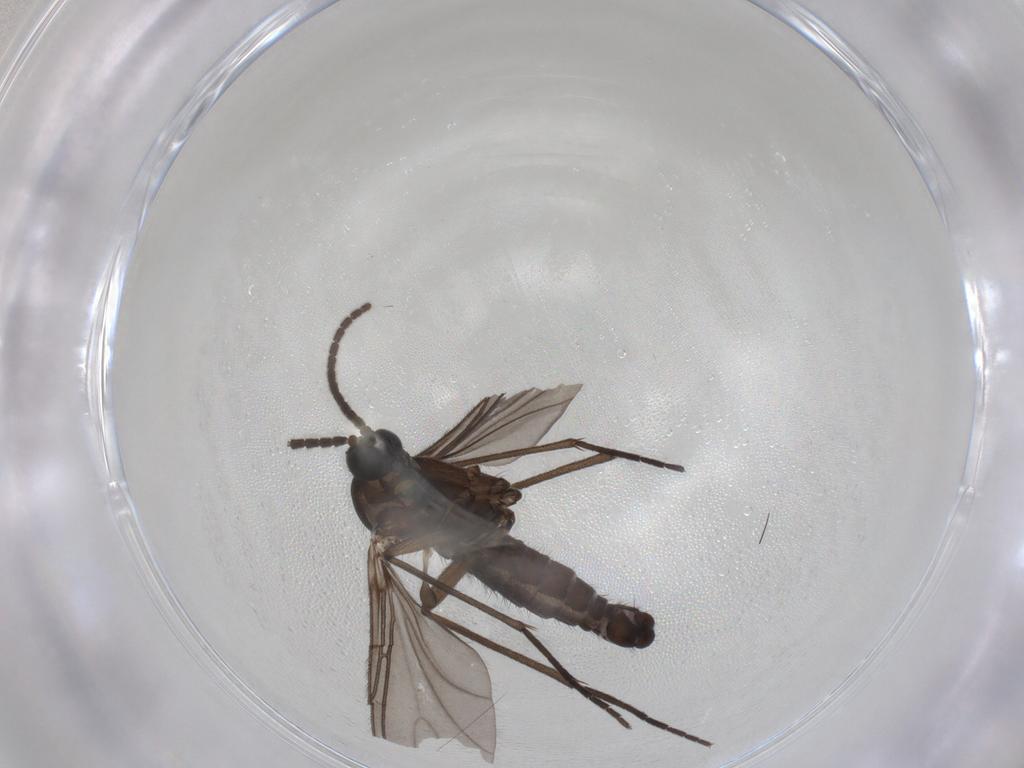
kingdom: Animalia
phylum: Arthropoda
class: Insecta
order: Diptera
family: Sciaridae
